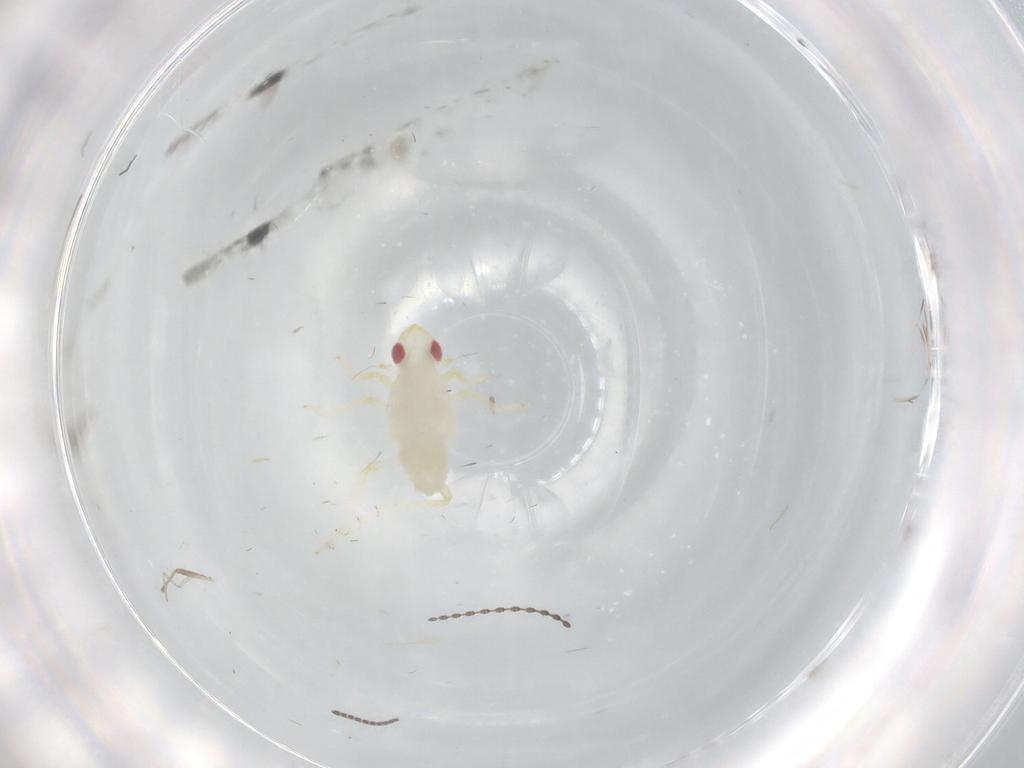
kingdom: Animalia
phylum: Arthropoda
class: Insecta
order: Hemiptera
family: Tropiduchidae
